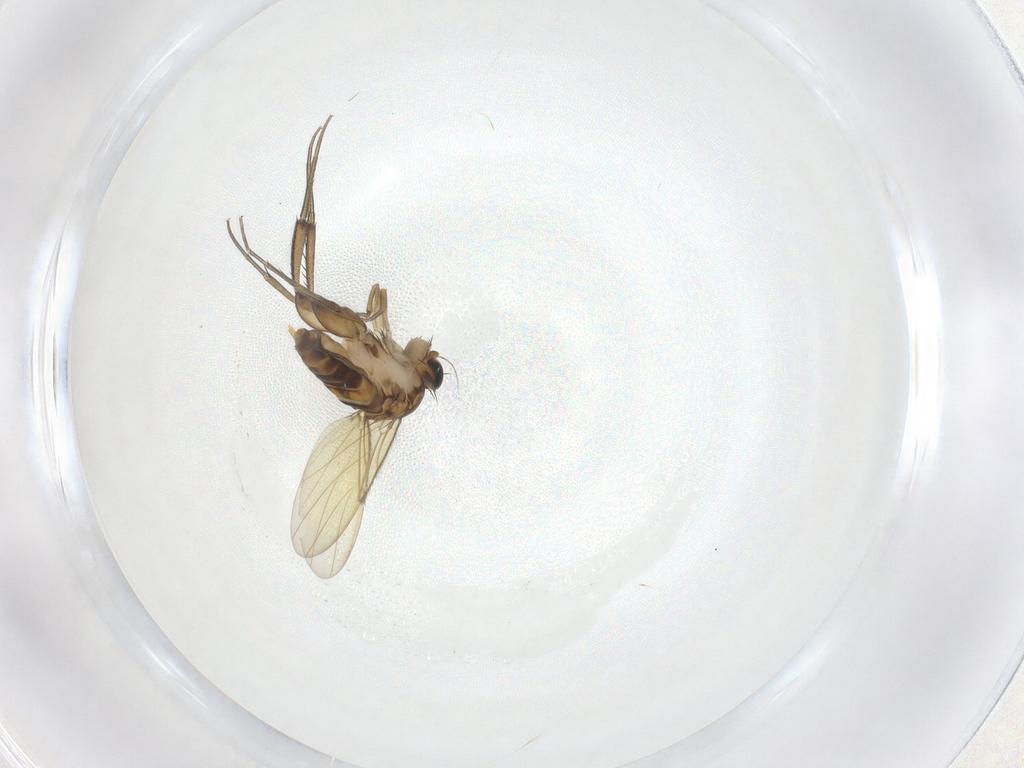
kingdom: Animalia
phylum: Arthropoda
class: Insecta
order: Diptera
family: Phoridae
